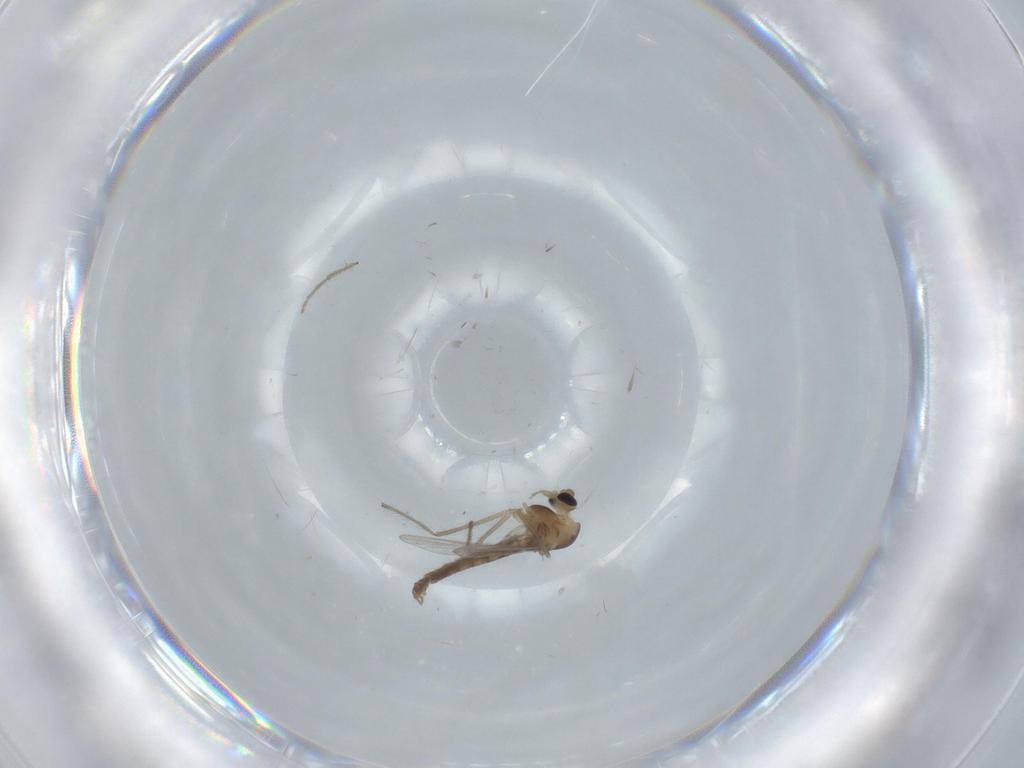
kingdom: Animalia
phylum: Arthropoda
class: Insecta
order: Diptera
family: Chironomidae
